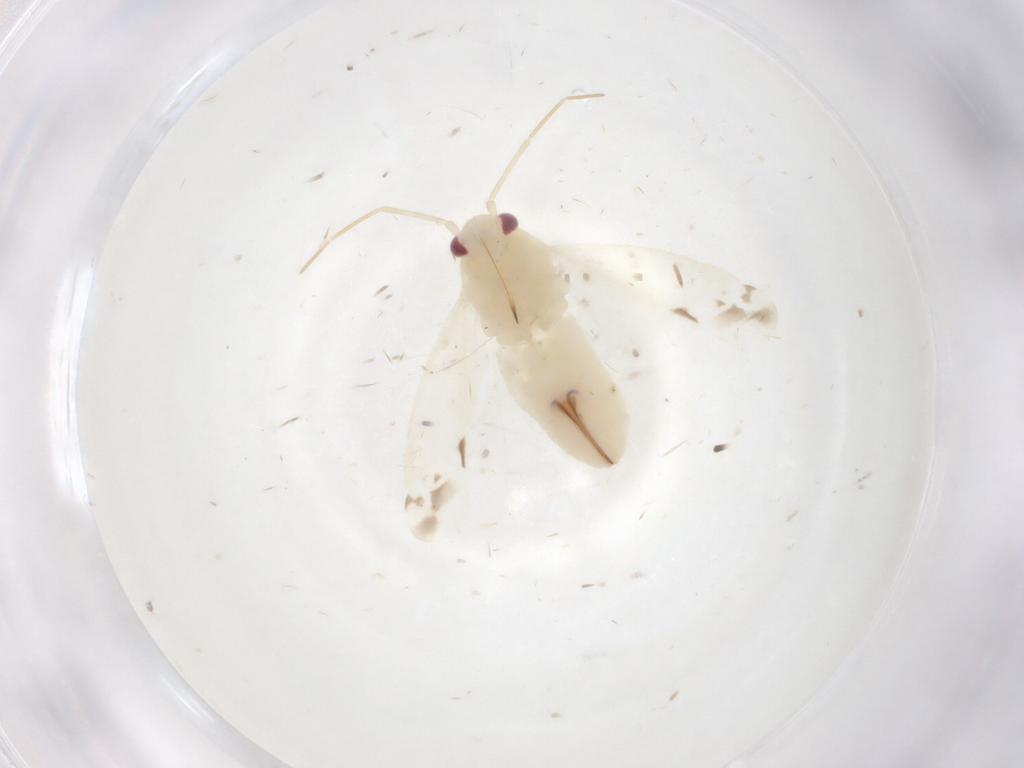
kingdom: Animalia
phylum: Arthropoda
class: Insecta
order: Hemiptera
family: Miridae
